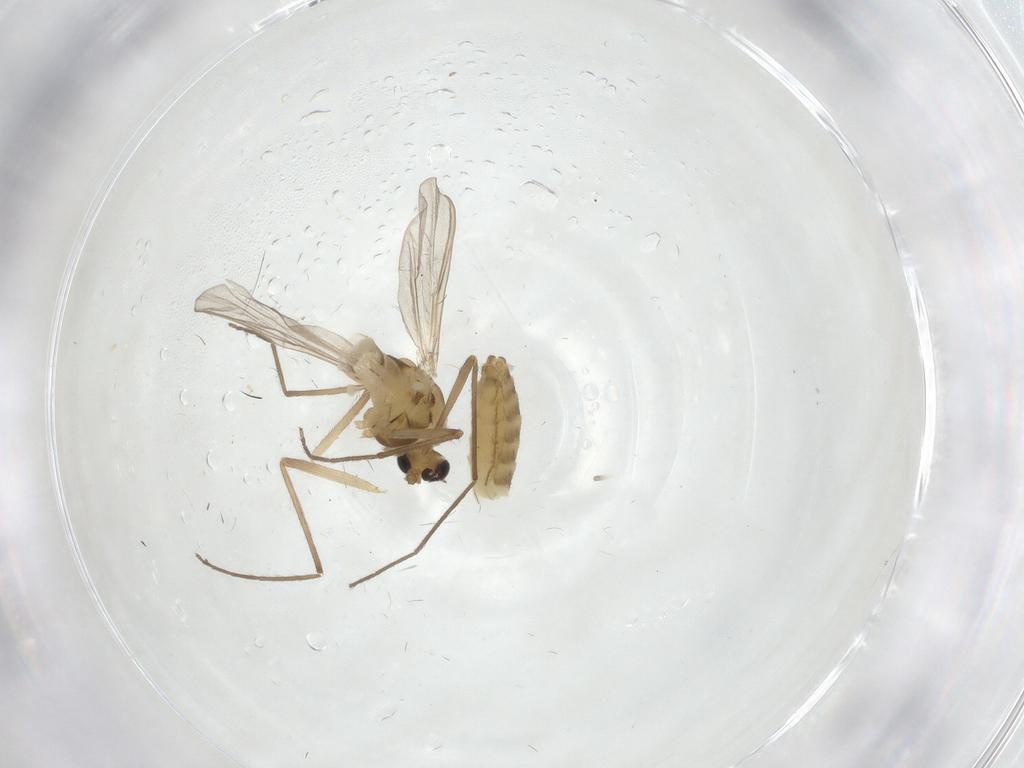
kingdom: Animalia
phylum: Arthropoda
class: Insecta
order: Diptera
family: Chironomidae
